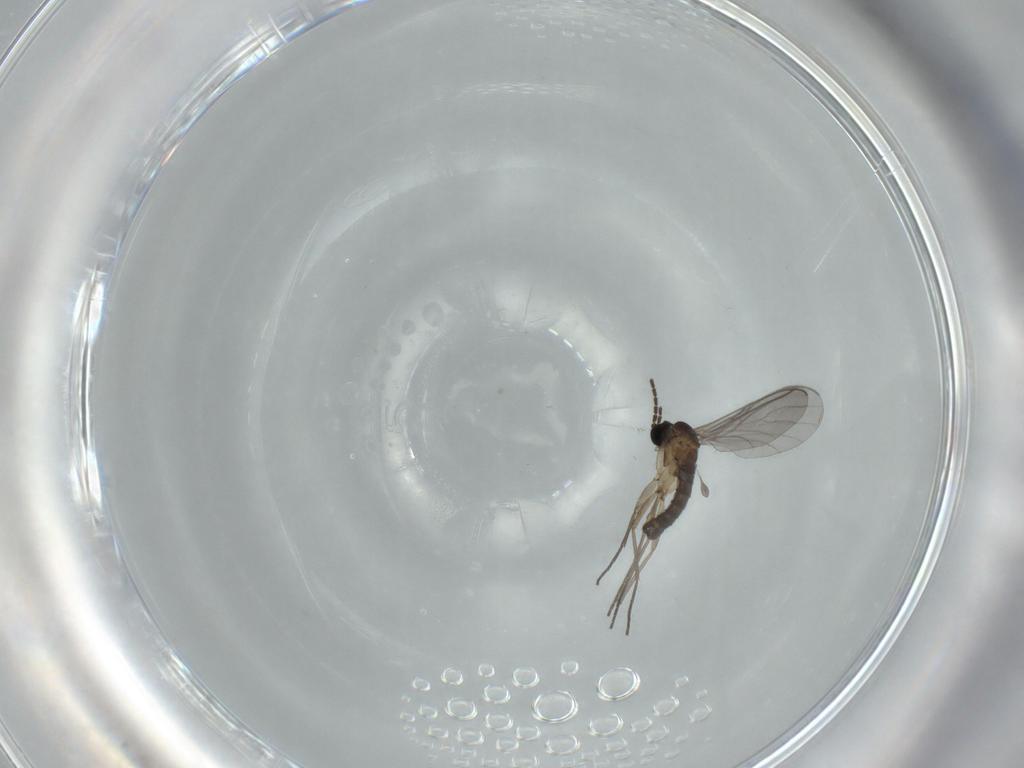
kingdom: Animalia
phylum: Arthropoda
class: Insecta
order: Diptera
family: Sciaridae
